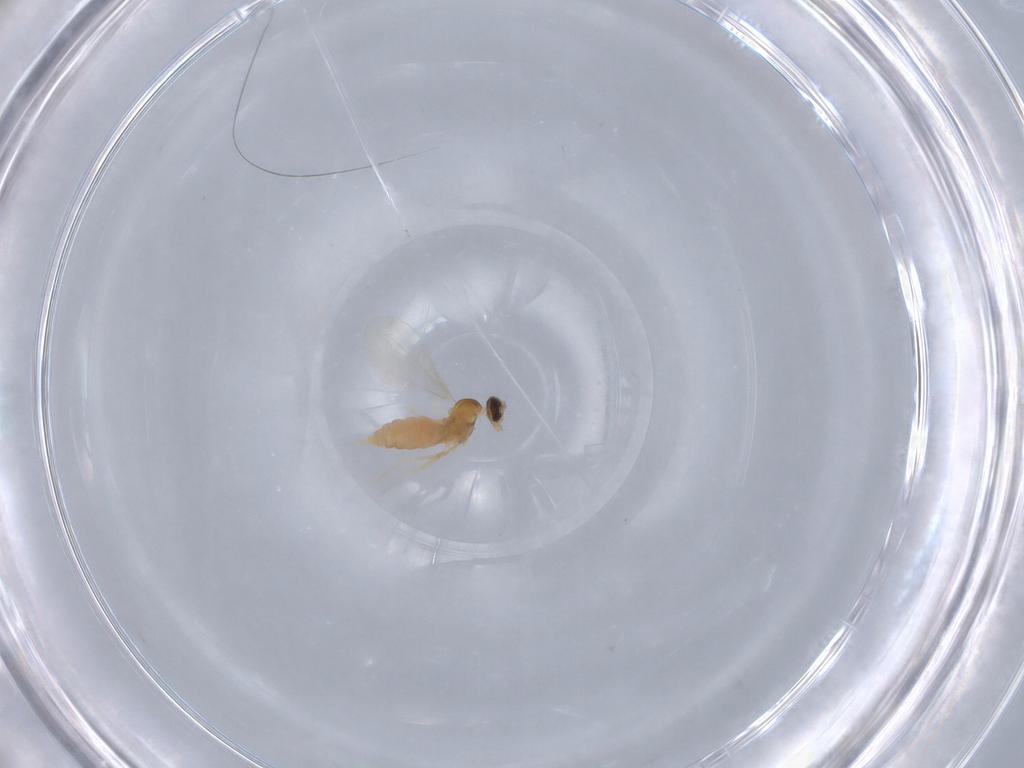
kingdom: Animalia
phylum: Arthropoda
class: Insecta
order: Diptera
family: Cecidomyiidae
